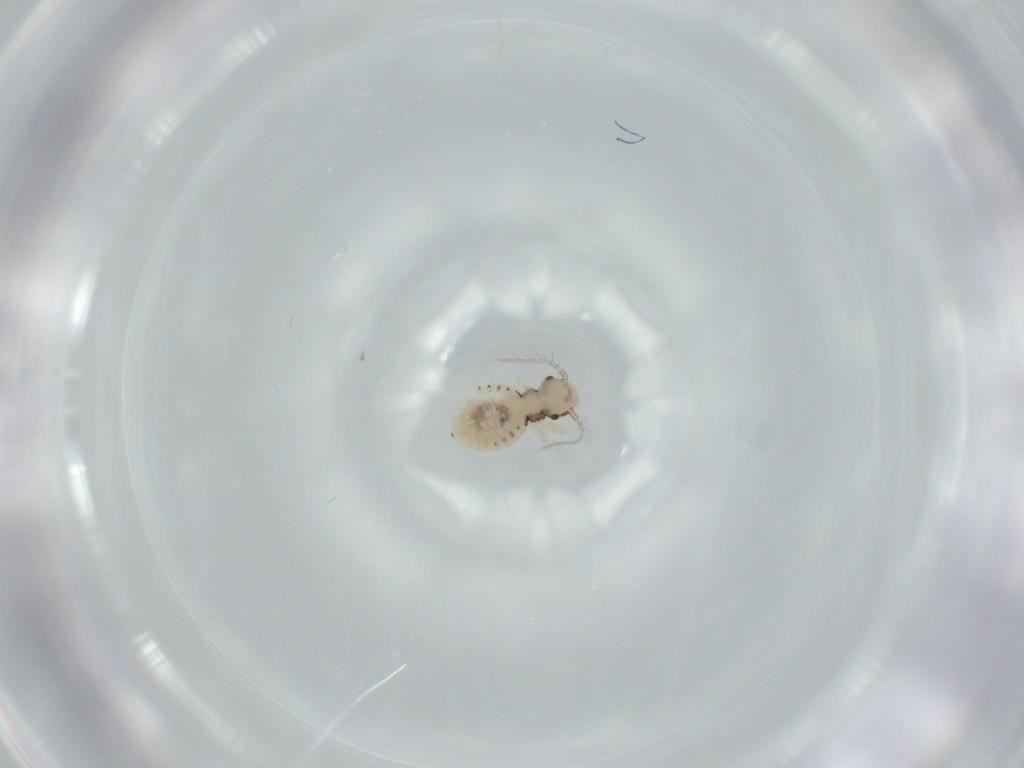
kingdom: Animalia
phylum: Arthropoda
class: Insecta
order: Psocodea
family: Pseudocaeciliidae
